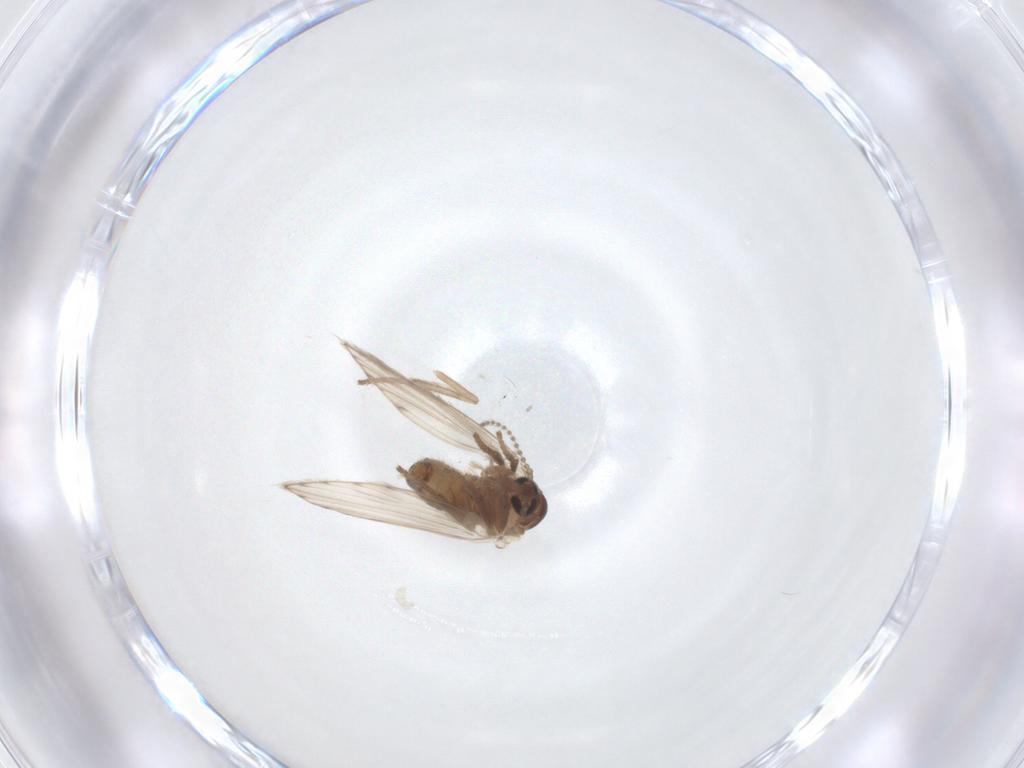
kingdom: Animalia
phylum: Arthropoda
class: Insecta
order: Diptera
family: Psychodidae
